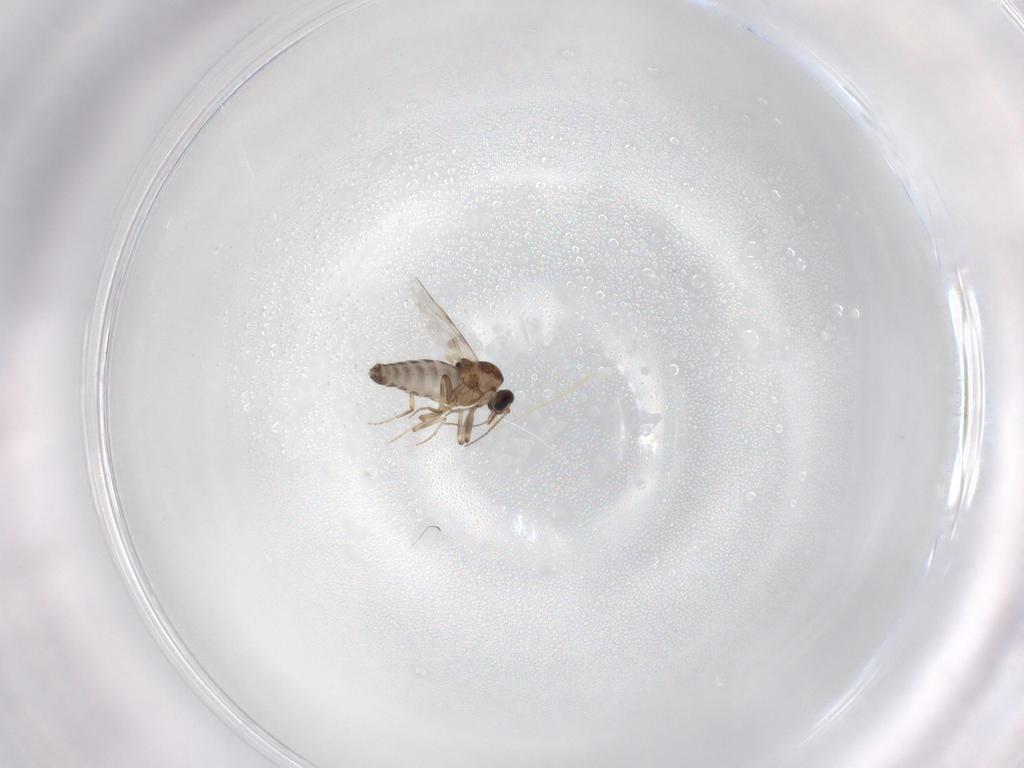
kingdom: Animalia
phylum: Arthropoda
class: Insecta
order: Diptera
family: Ceratopogonidae
